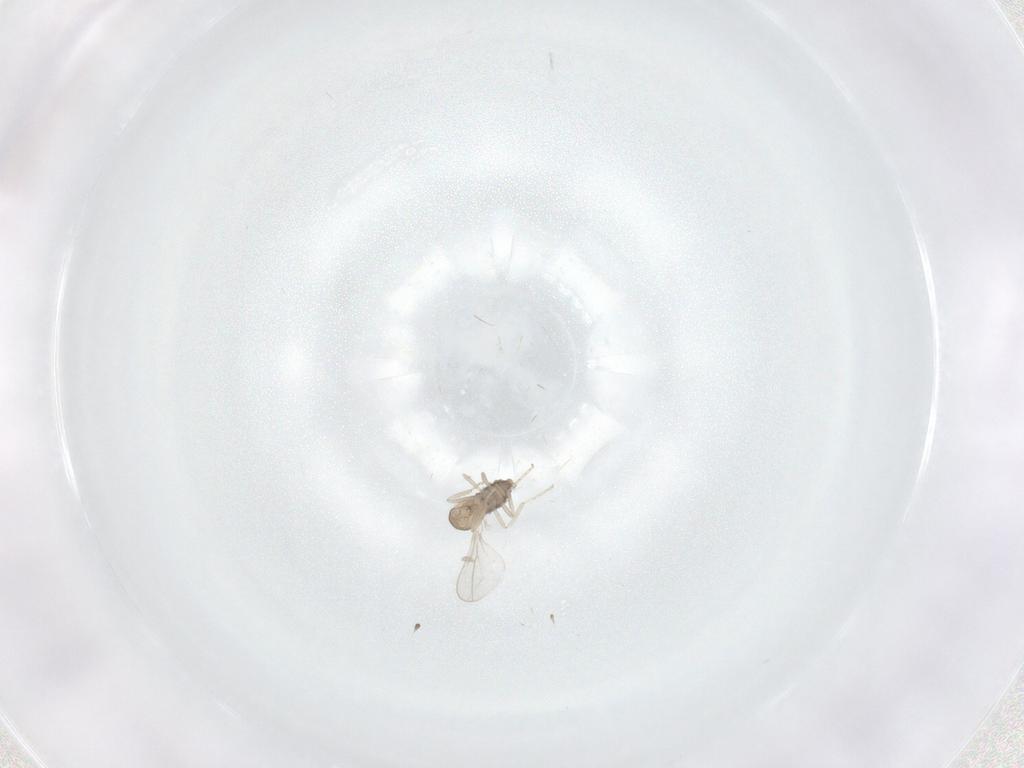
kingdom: Animalia
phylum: Arthropoda
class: Insecta
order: Diptera
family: Cecidomyiidae
